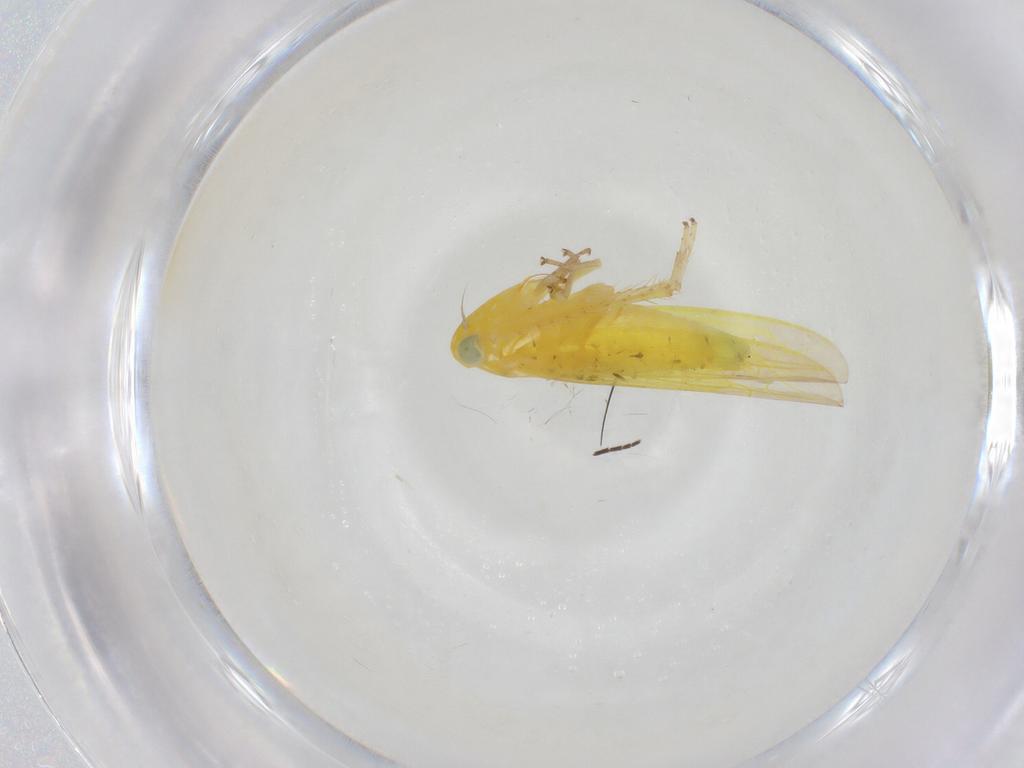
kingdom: Animalia
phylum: Arthropoda
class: Insecta
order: Hemiptera
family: Cicadellidae
